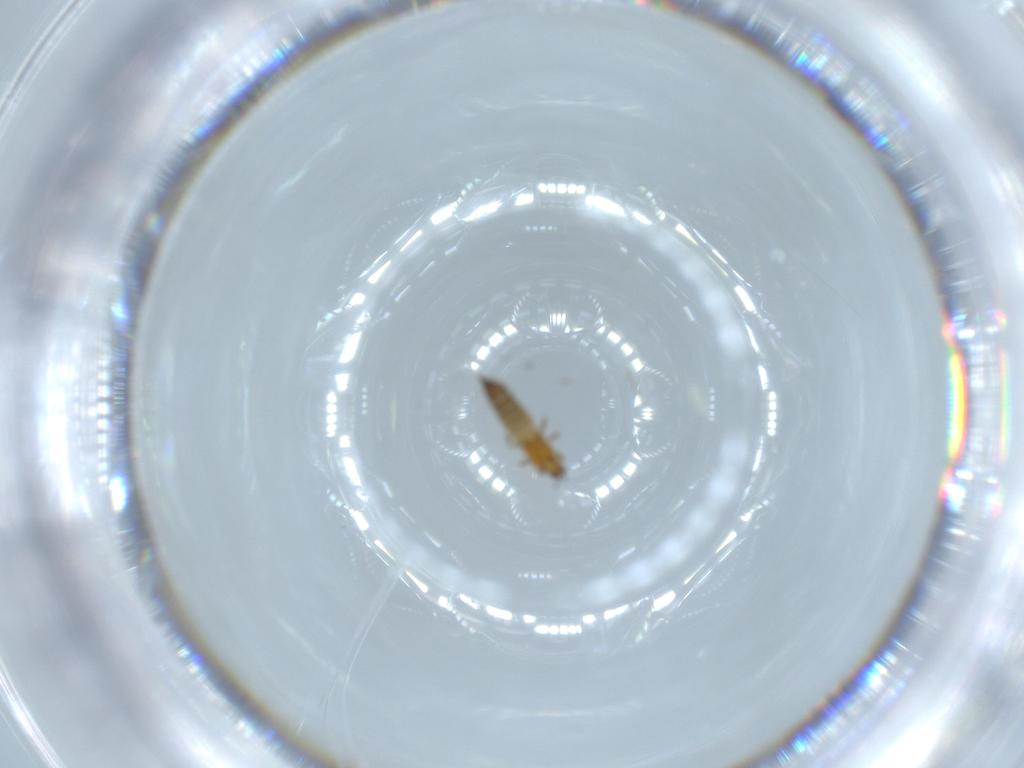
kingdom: Animalia
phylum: Arthropoda
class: Insecta
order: Thysanoptera
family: Thripidae
